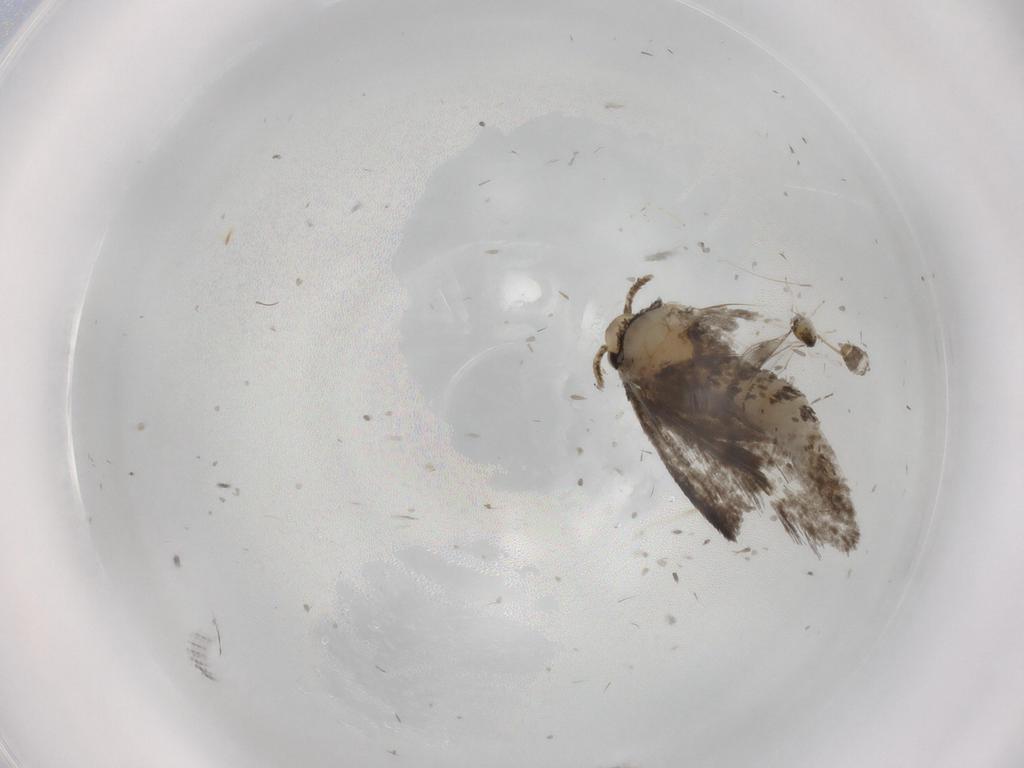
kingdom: Animalia
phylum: Arthropoda
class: Insecta
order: Lepidoptera
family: Psychidae
